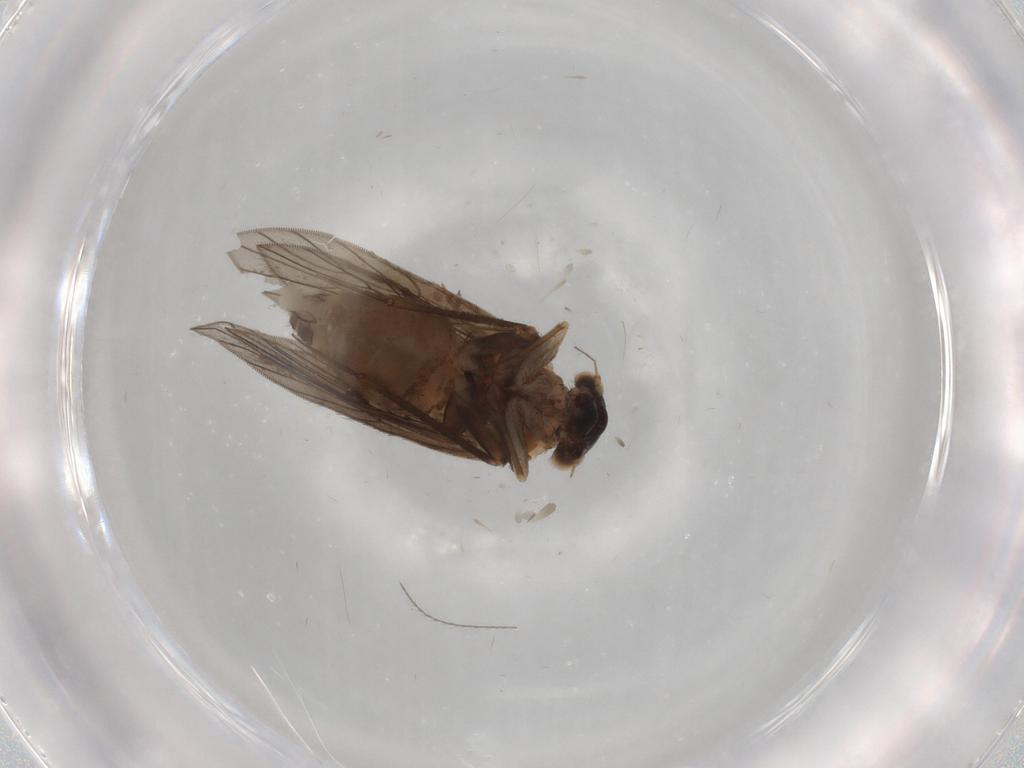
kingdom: Animalia
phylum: Arthropoda
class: Insecta
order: Psocodea
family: Lepidopsocidae
